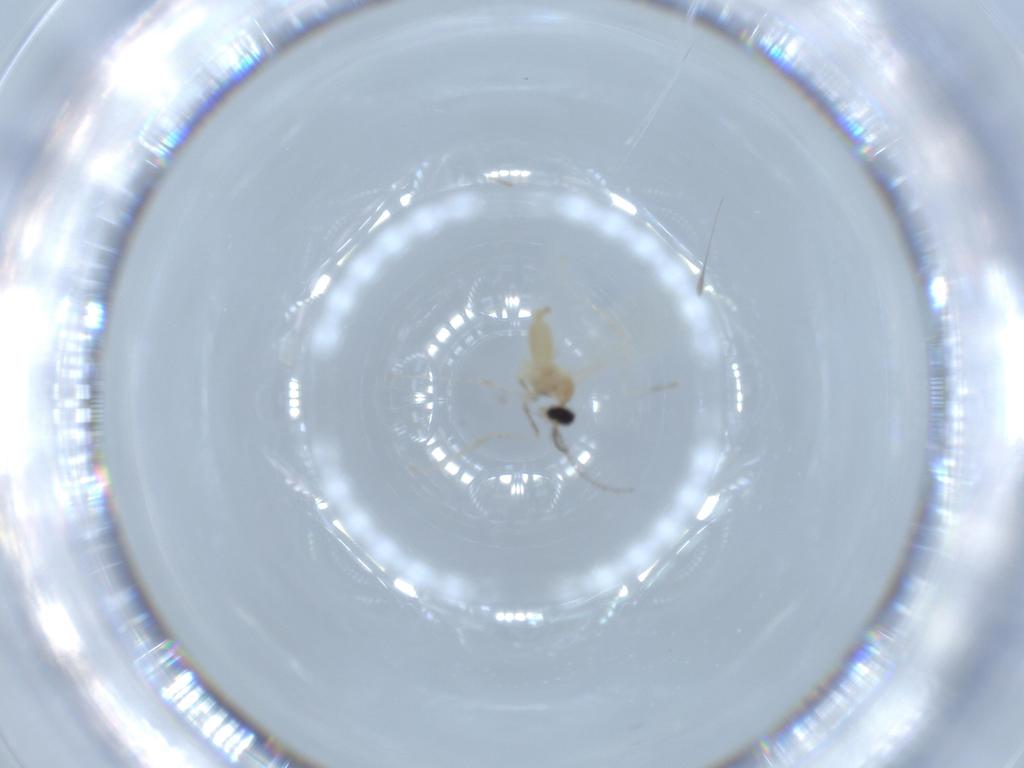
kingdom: Animalia
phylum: Arthropoda
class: Insecta
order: Diptera
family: Cecidomyiidae
